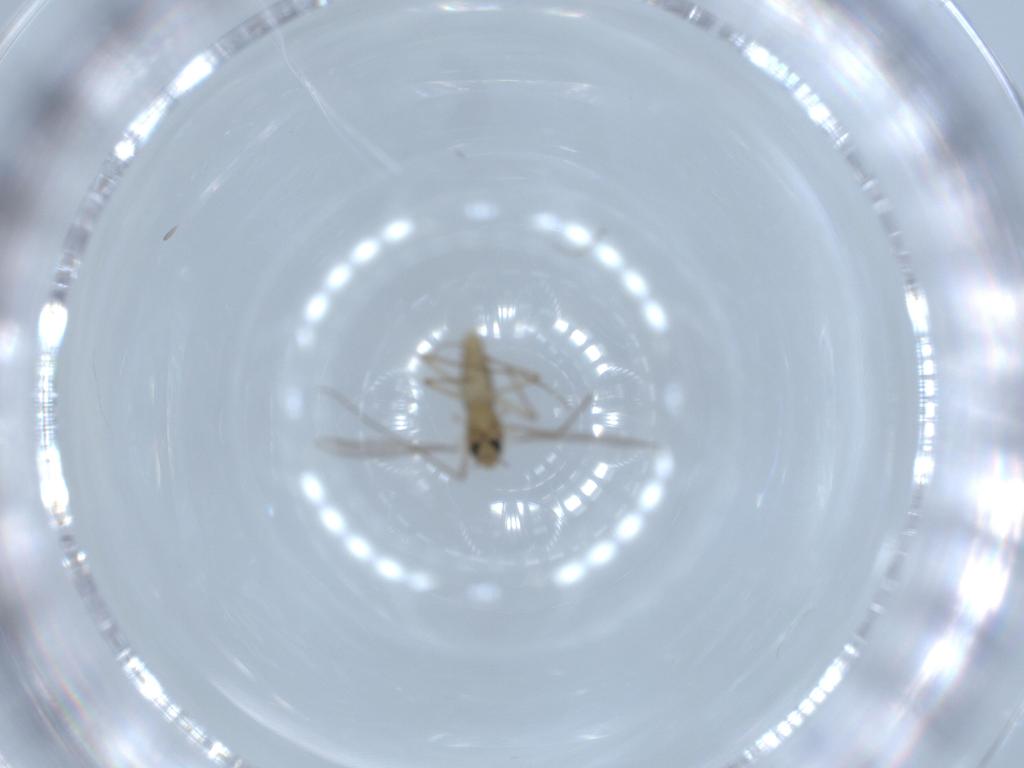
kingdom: Animalia
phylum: Arthropoda
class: Insecta
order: Diptera
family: Chironomidae
